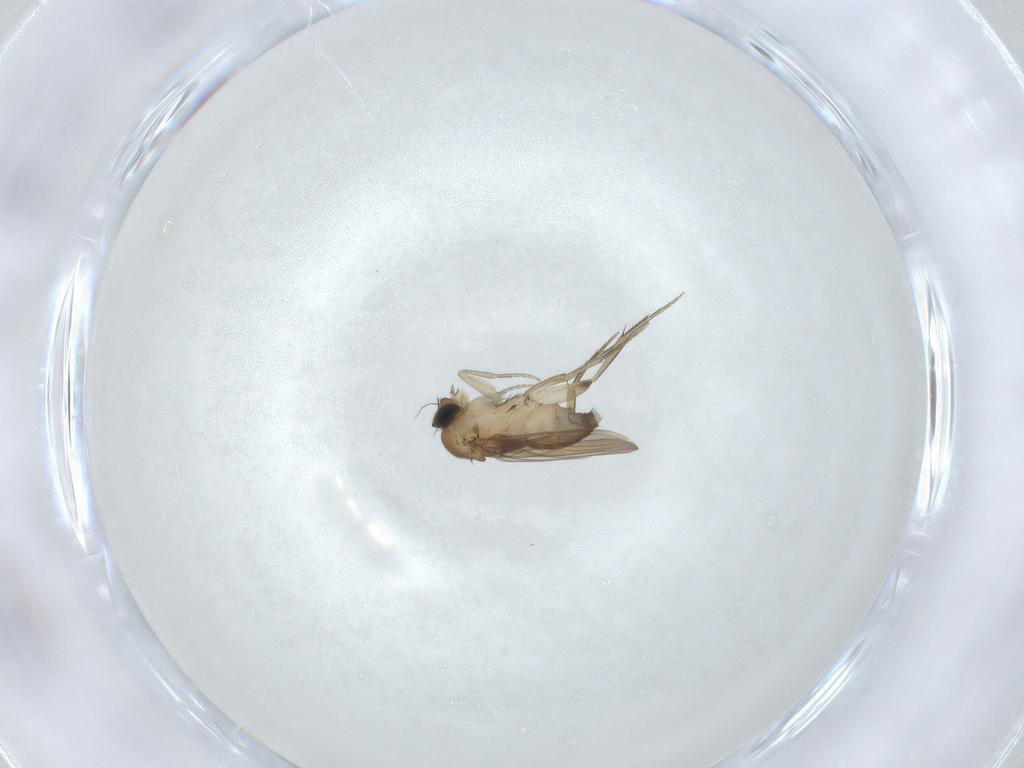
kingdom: Animalia
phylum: Arthropoda
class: Insecta
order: Diptera
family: Phoridae
